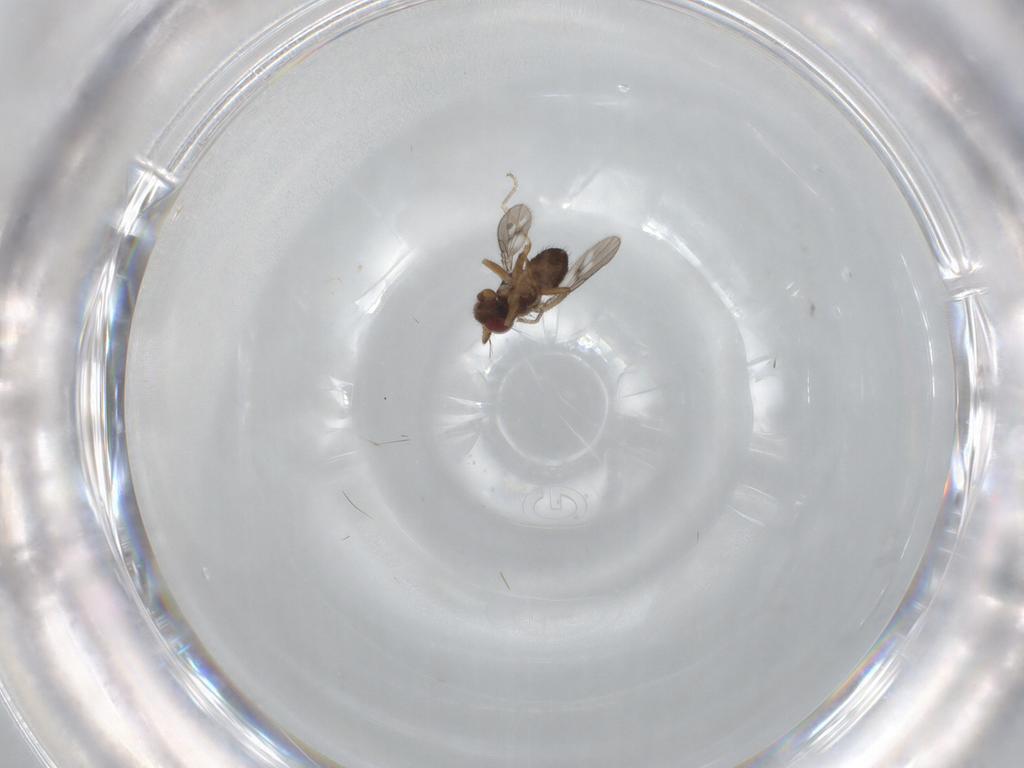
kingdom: Animalia
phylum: Arthropoda
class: Insecta
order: Diptera
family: Ephydridae
